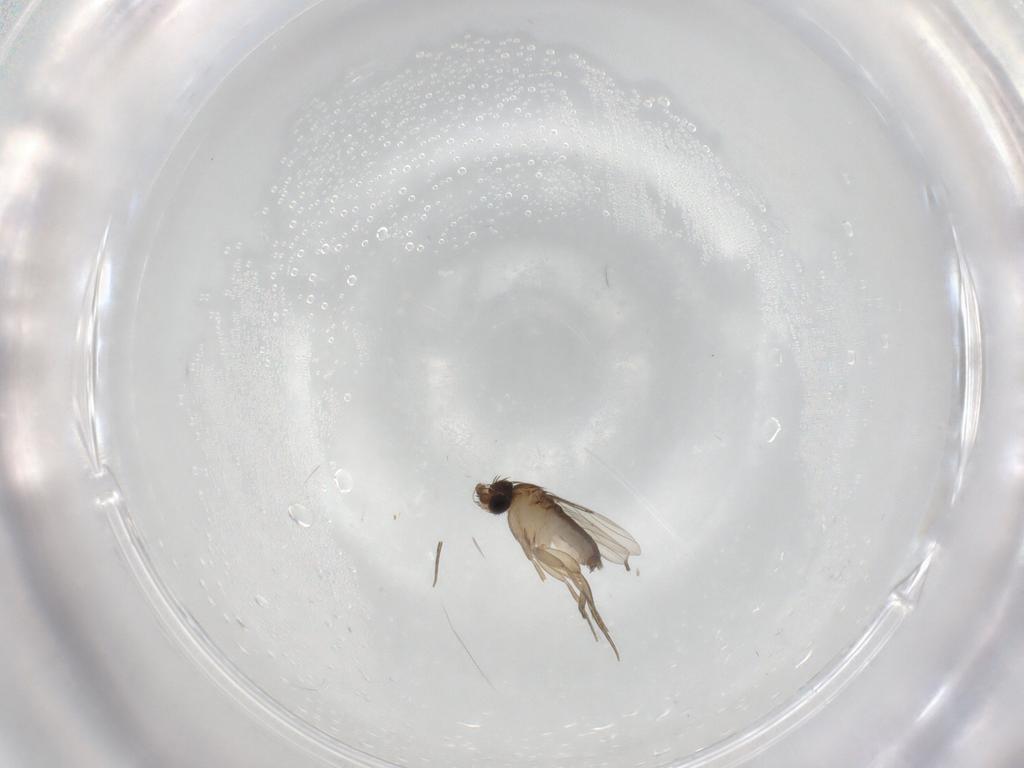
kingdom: Animalia
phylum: Arthropoda
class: Insecta
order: Diptera
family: Phoridae
